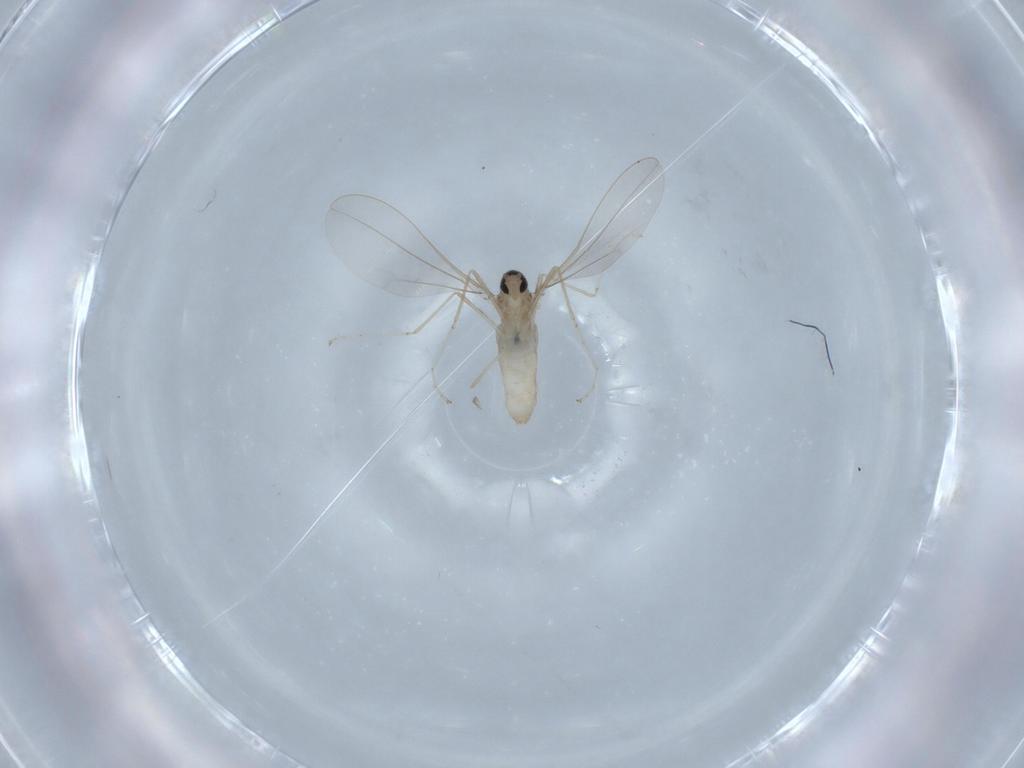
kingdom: Animalia
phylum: Arthropoda
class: Insecta
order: Diptera
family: Cecidomyiidae
